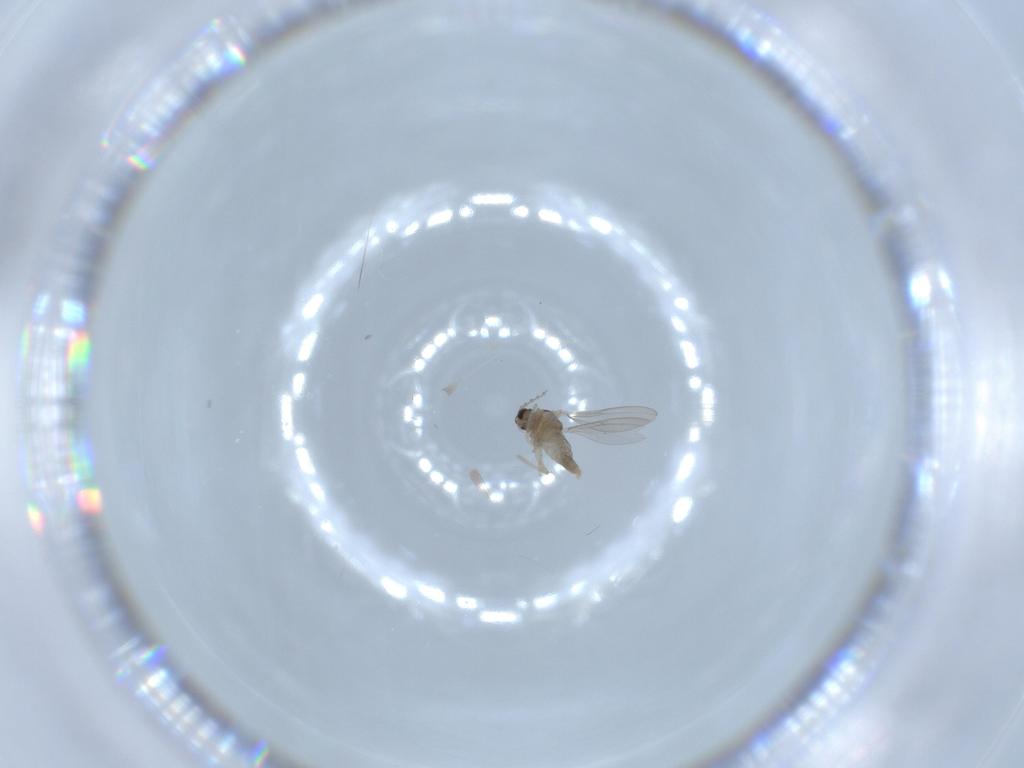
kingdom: Animalia
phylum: Arthropoda
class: Insecta
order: Diptera
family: Cecidomyiidae
